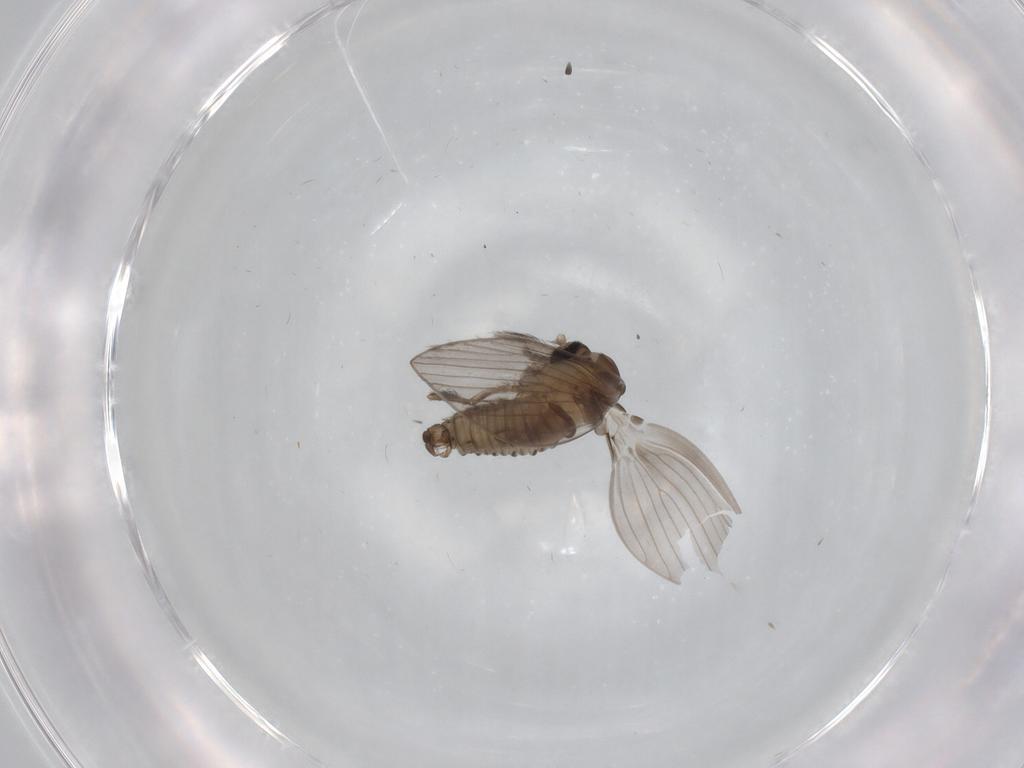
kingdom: Animalia
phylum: Arthropoda
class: Insecta
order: Diptera
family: Psychodidae
